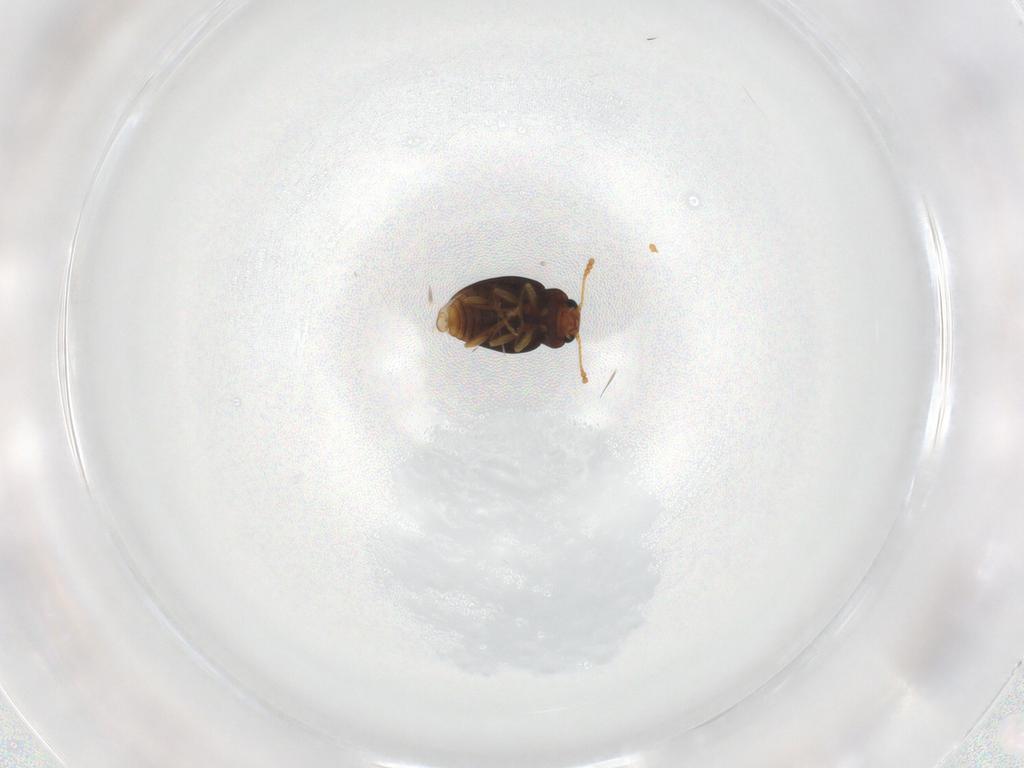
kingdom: Animalia
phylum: Arthropoda
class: Insecta
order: Coleoptera
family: Erotylidae
